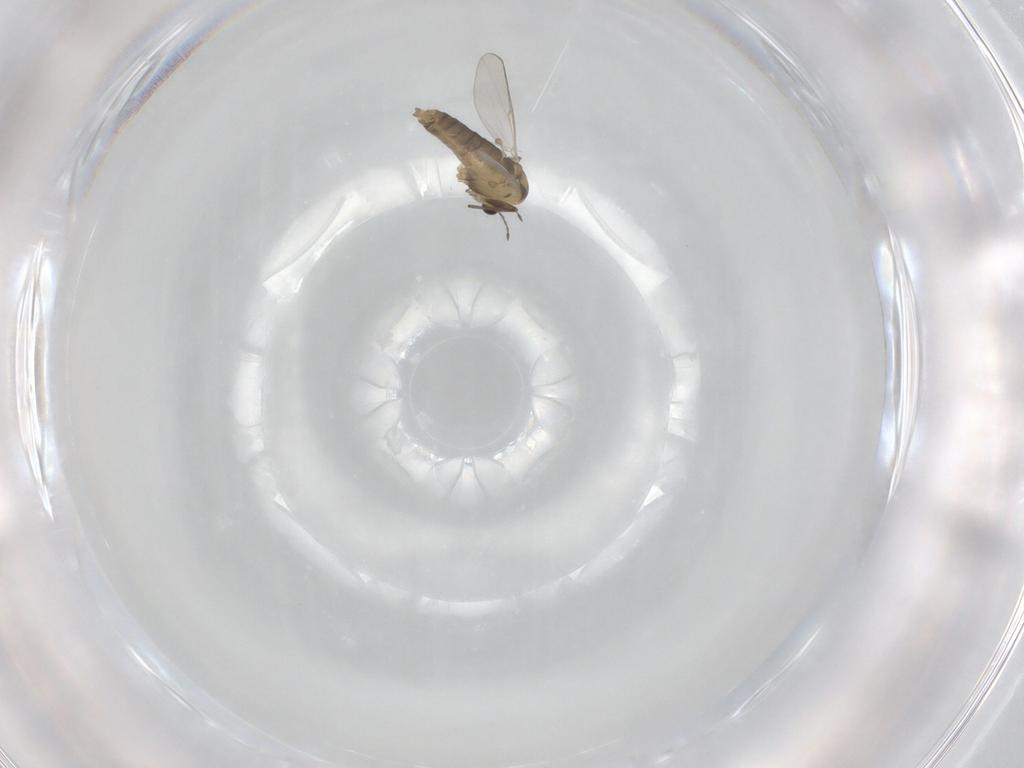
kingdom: Animalia
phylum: Arthropoda
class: Insecta
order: Diptera
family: Chironomidae
